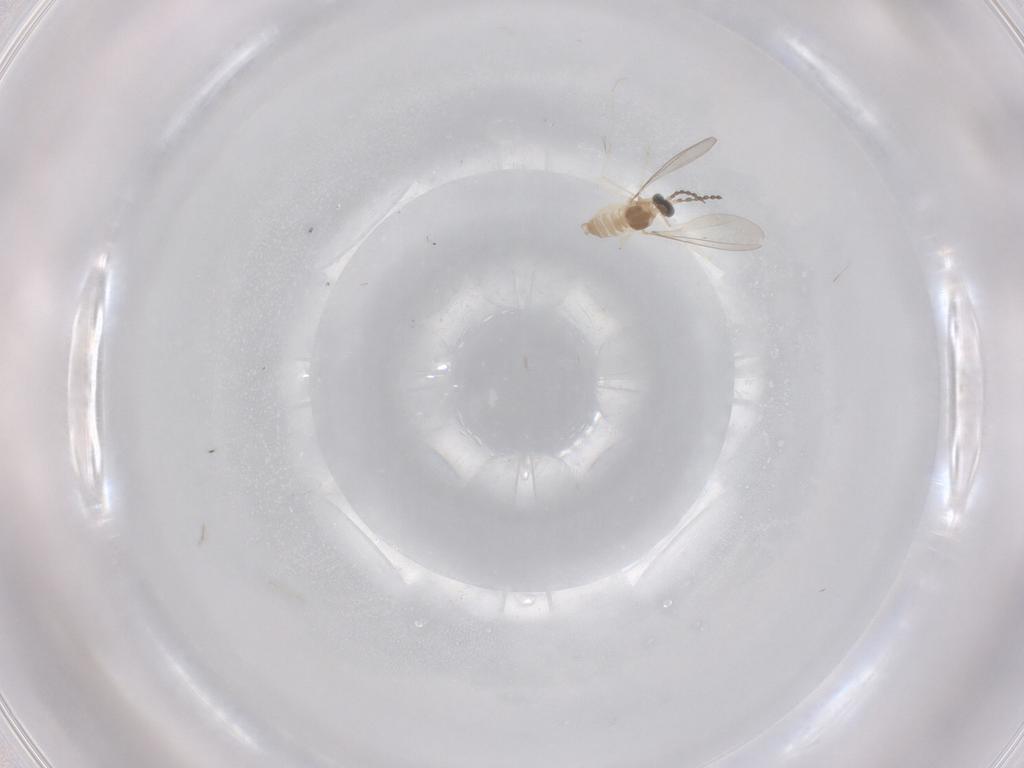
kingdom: Animalia
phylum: Arthropoda
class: Insecta
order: Diptera
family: Cecidomyiidae
